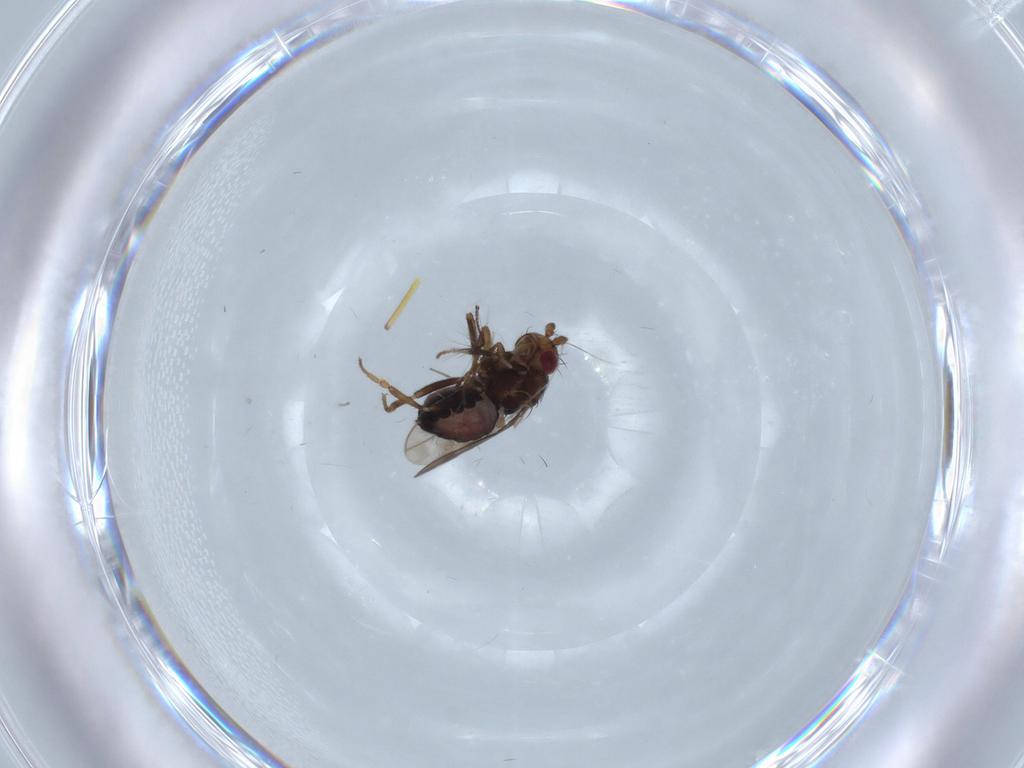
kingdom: Animalia
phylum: Arthropoda
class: Insecta
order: Diptera
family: Sphaeroceridae
